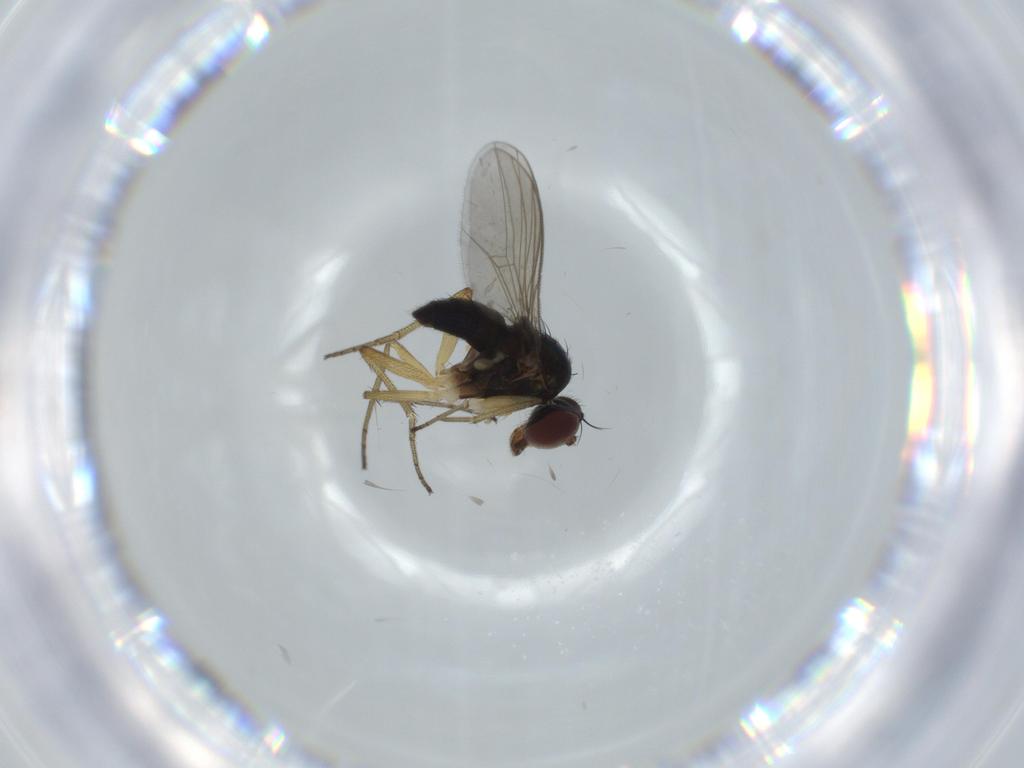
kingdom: Animalia
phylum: Arthropoda
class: Insecta
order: Diptera
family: Dolichopodidae
